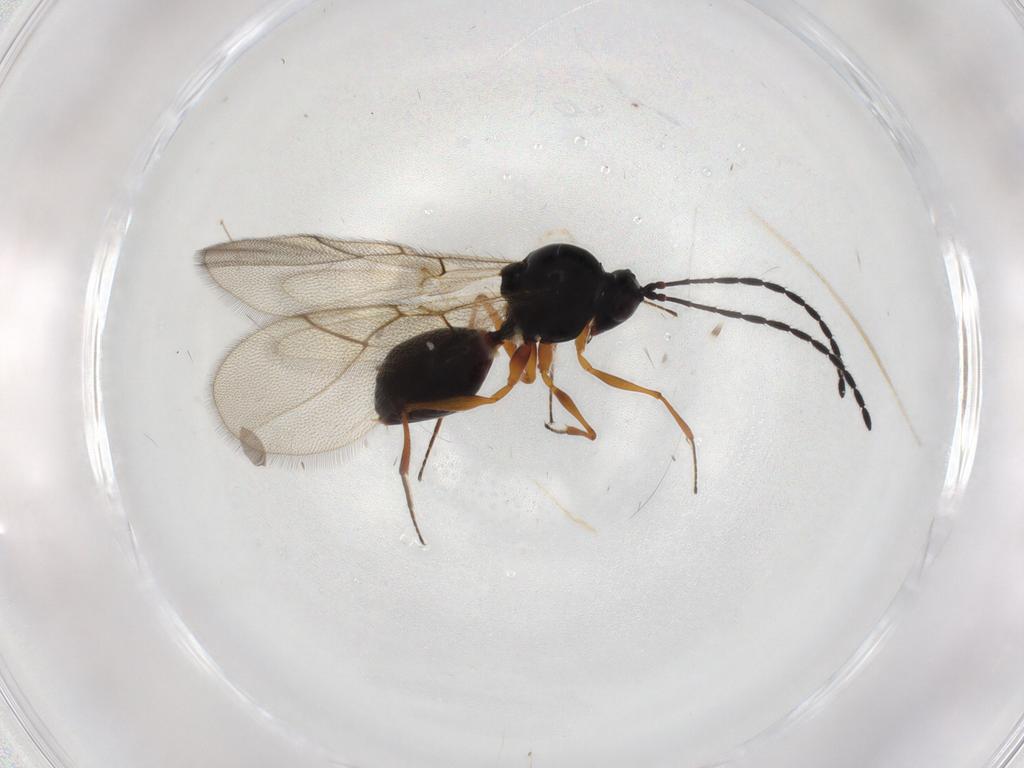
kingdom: Animalia
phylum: Arthropoda
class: Insecta
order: Hymenoptera
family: Figitidae
